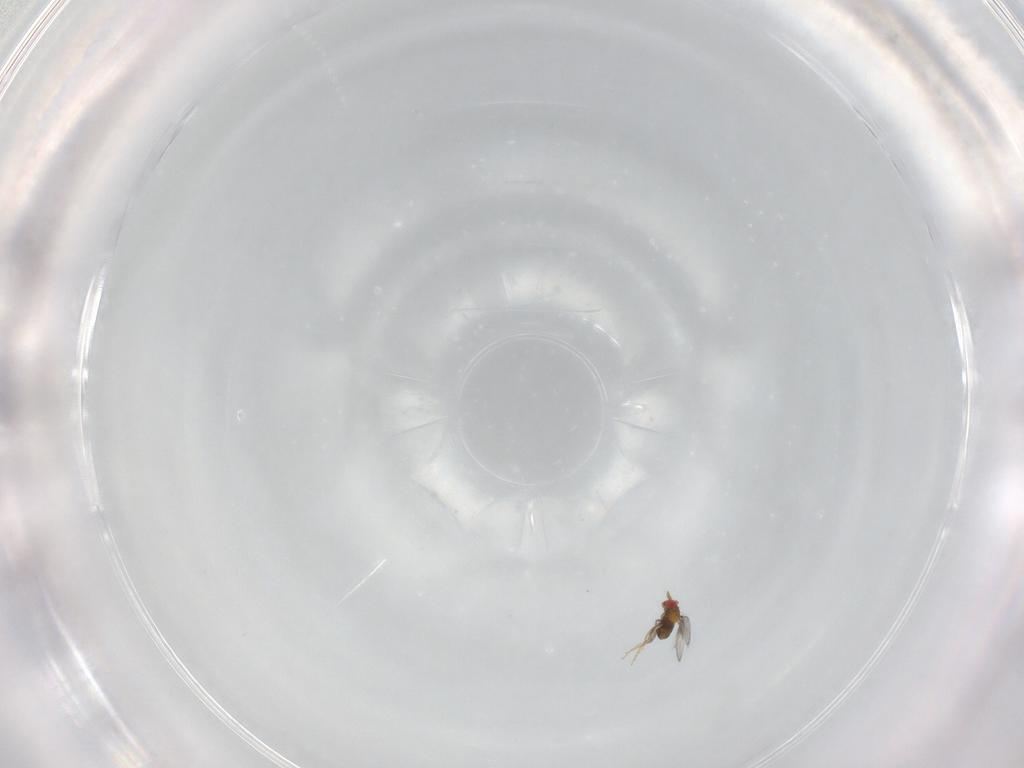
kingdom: Animalia
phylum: Arthropoda
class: Insecta
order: Hymenoptera
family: Trichogrammatidae
